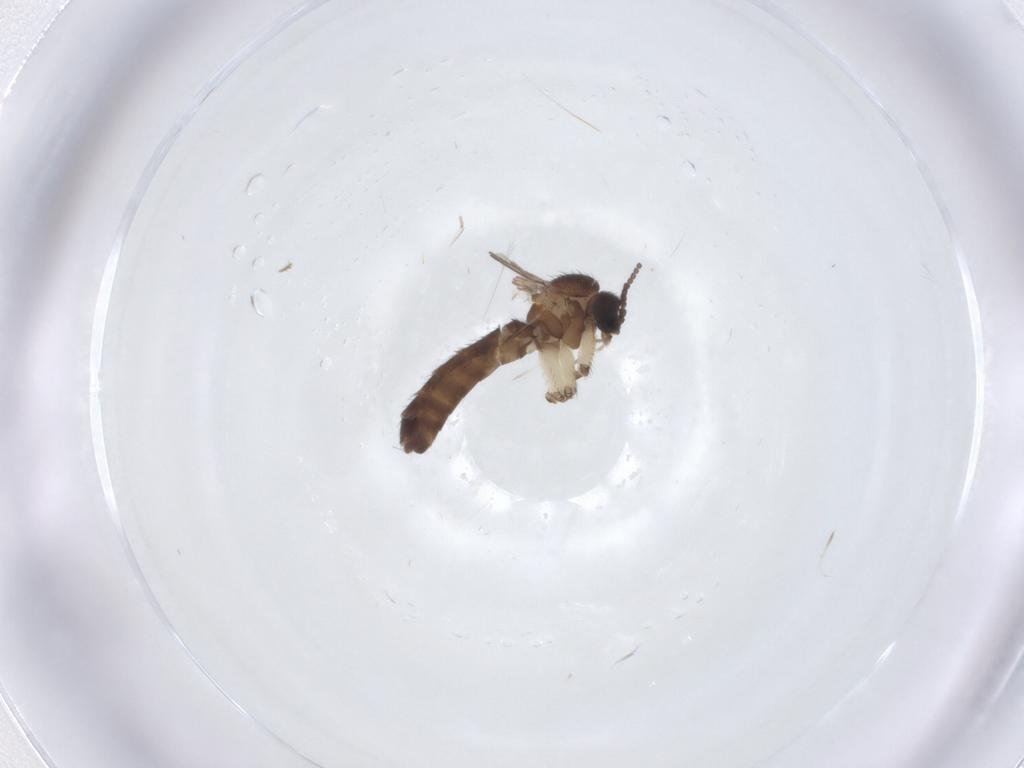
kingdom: Animalia
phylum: Arthropoda
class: Insecta
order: Diptera
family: Keroplatidae
